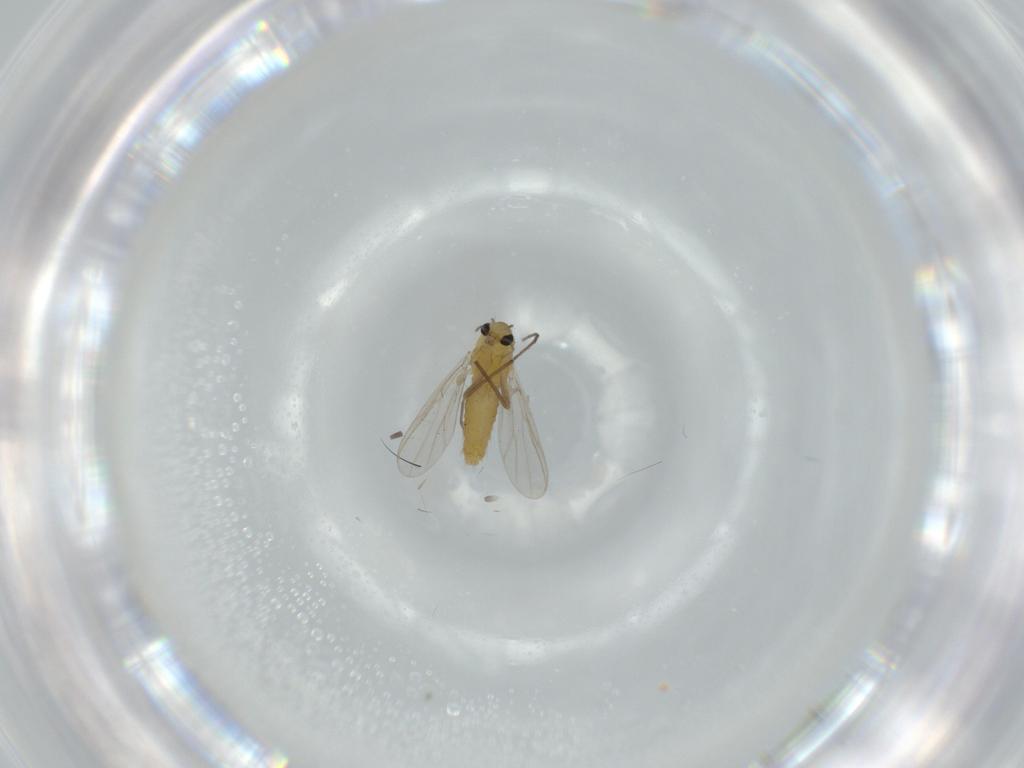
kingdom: Animalia
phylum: Arthropoda
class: Insecta
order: Diptera
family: Chironomidae
